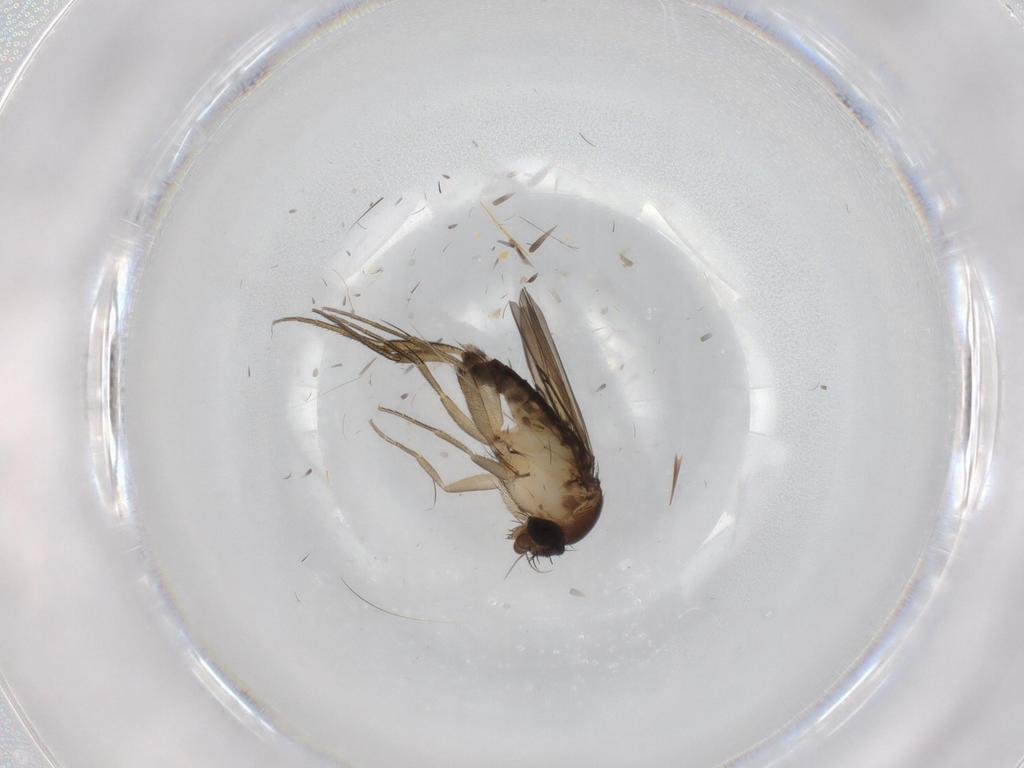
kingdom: Animalia
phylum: Arthropoda
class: Insecta
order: Diptera
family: Cecidomyiidae
